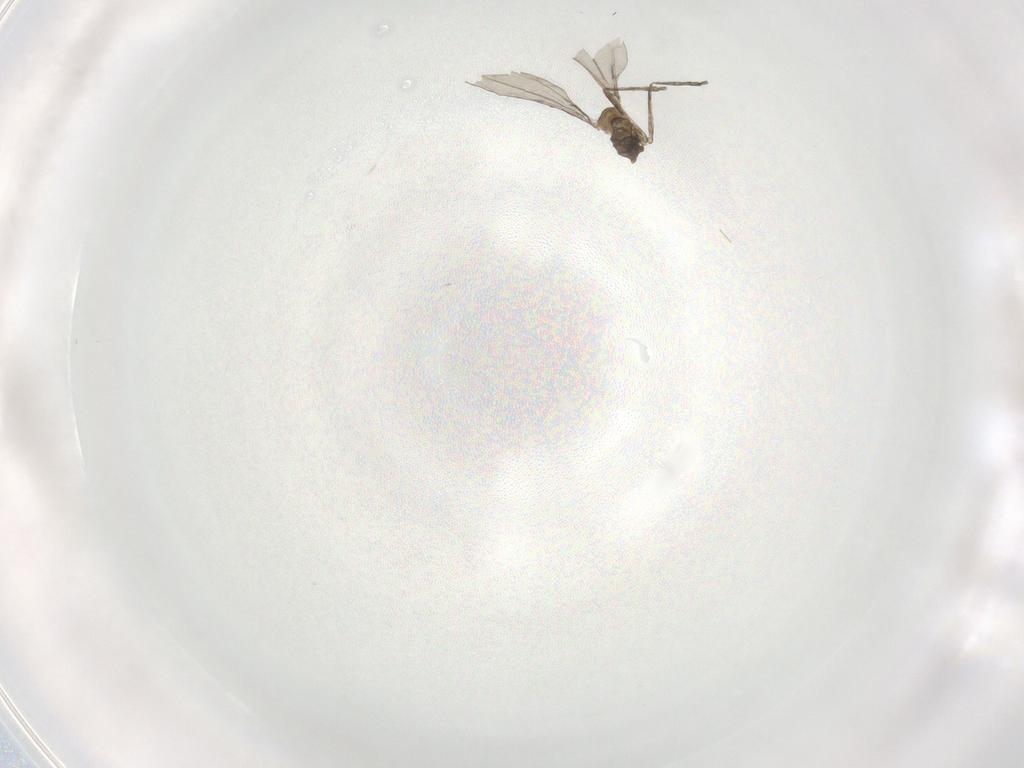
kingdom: Animalia
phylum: Arthropoda
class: Insecta
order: Diptera
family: Cecidomyiidae
